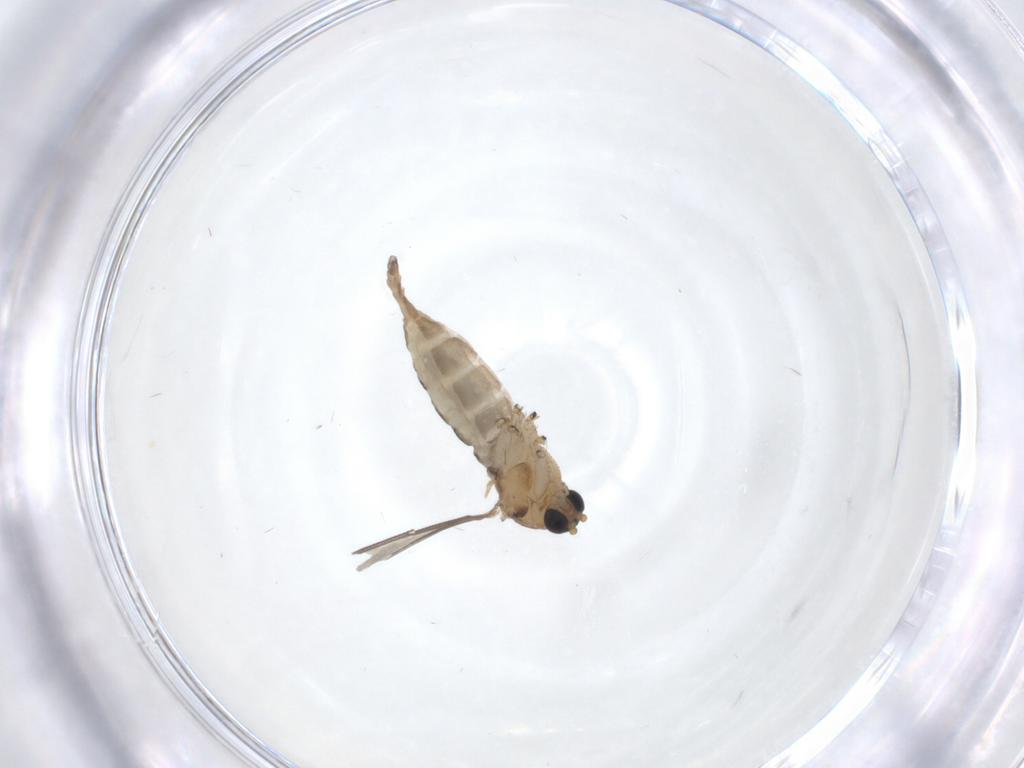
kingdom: Animalia
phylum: Arthropoda
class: Insecta
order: Diptera
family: Sciaridae
